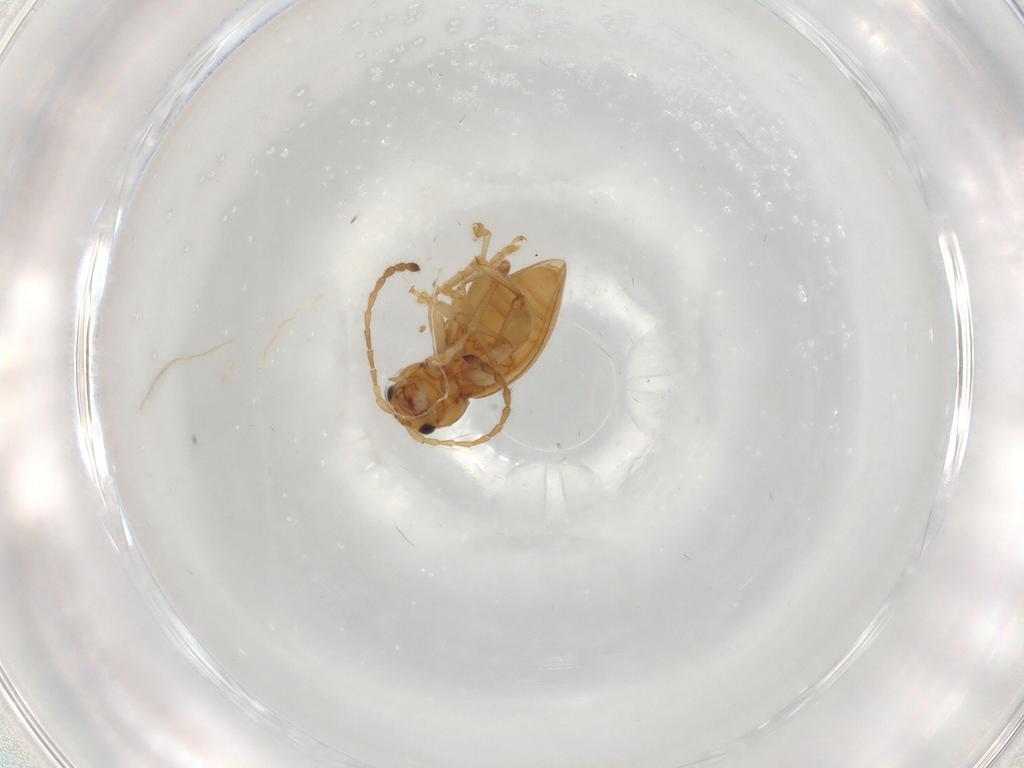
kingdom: Animalia
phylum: Arthropoda
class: Insecta
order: Coleoptera
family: Chrysomelidae
